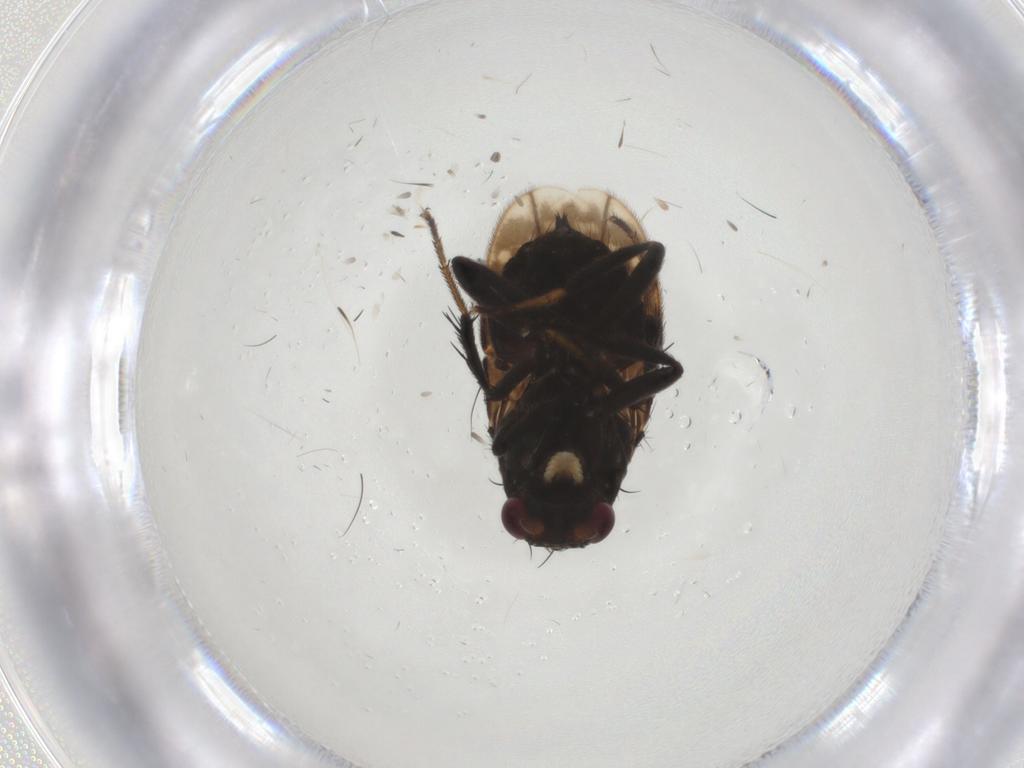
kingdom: Animalia
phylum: Arthropoda
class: Insecta
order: Diptera
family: Sphaeroceridae
